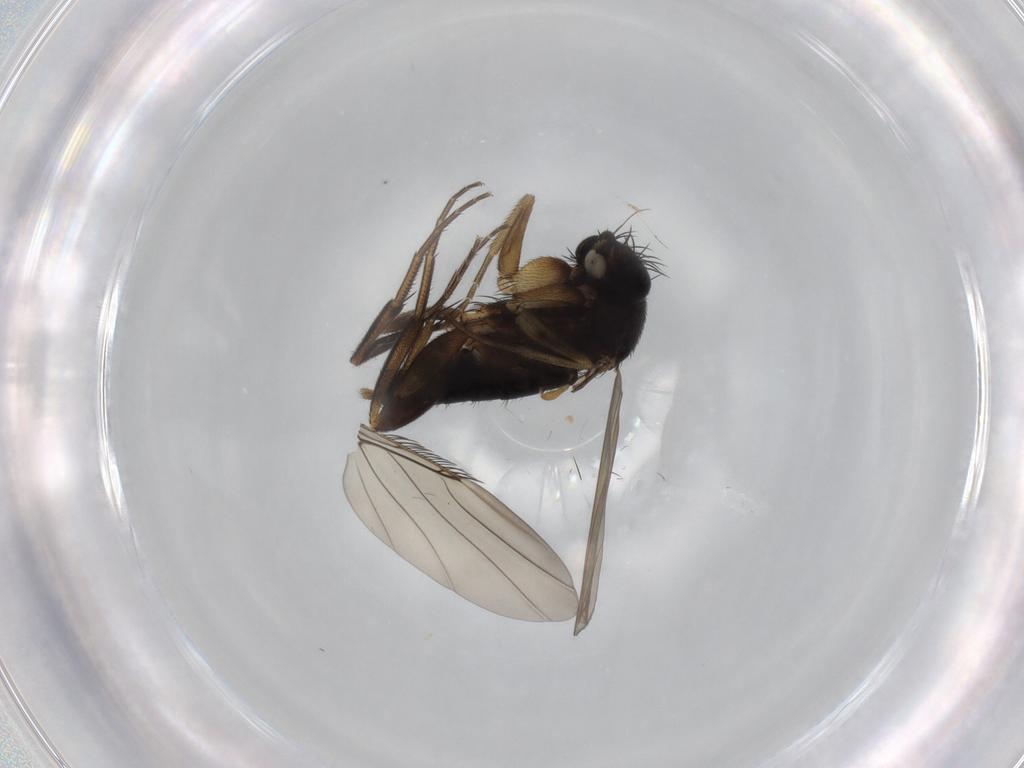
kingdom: Animalia
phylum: Arthropoda
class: Insecta
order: Diptera
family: Phoridae
